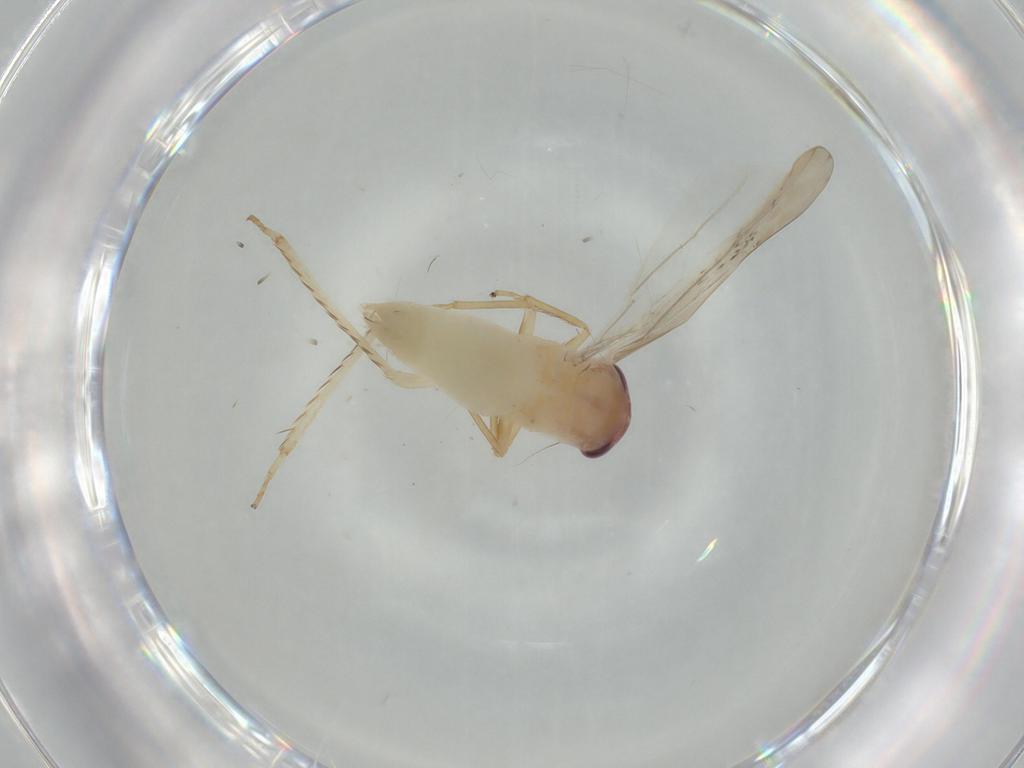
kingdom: Animalia
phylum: Arthropoda
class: Insecta
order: Hemiptera
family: Cicadellidae
